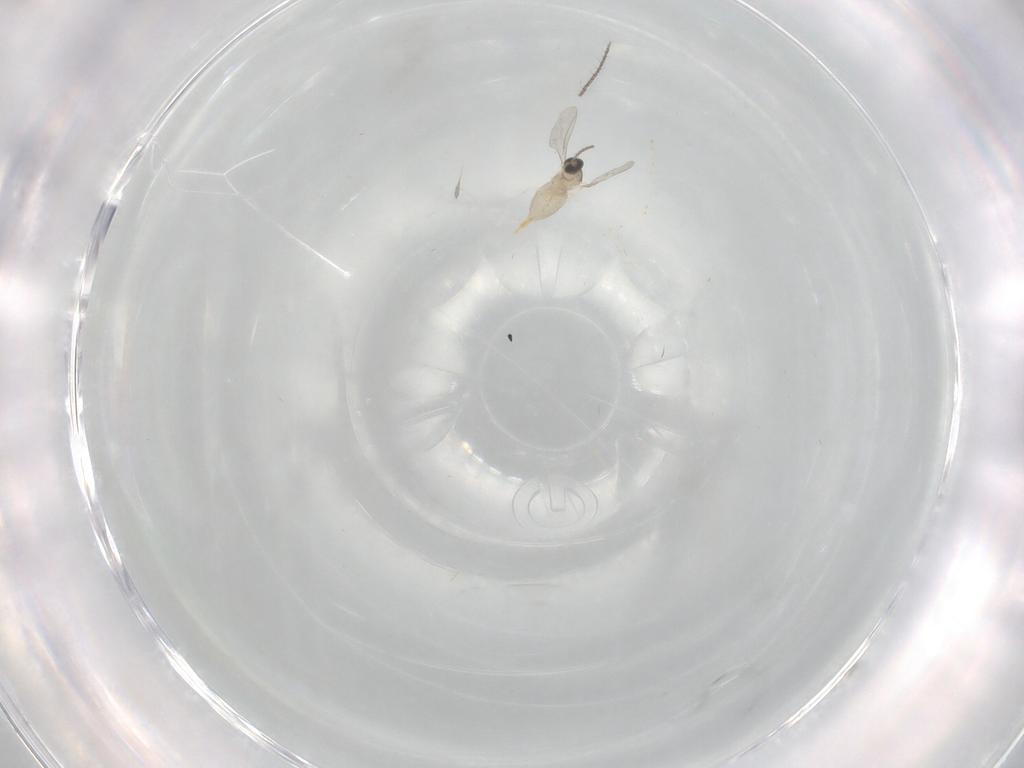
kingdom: Animalia
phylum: Arthropoda
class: Insecta
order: Diptera
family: Cecidomyiidae
